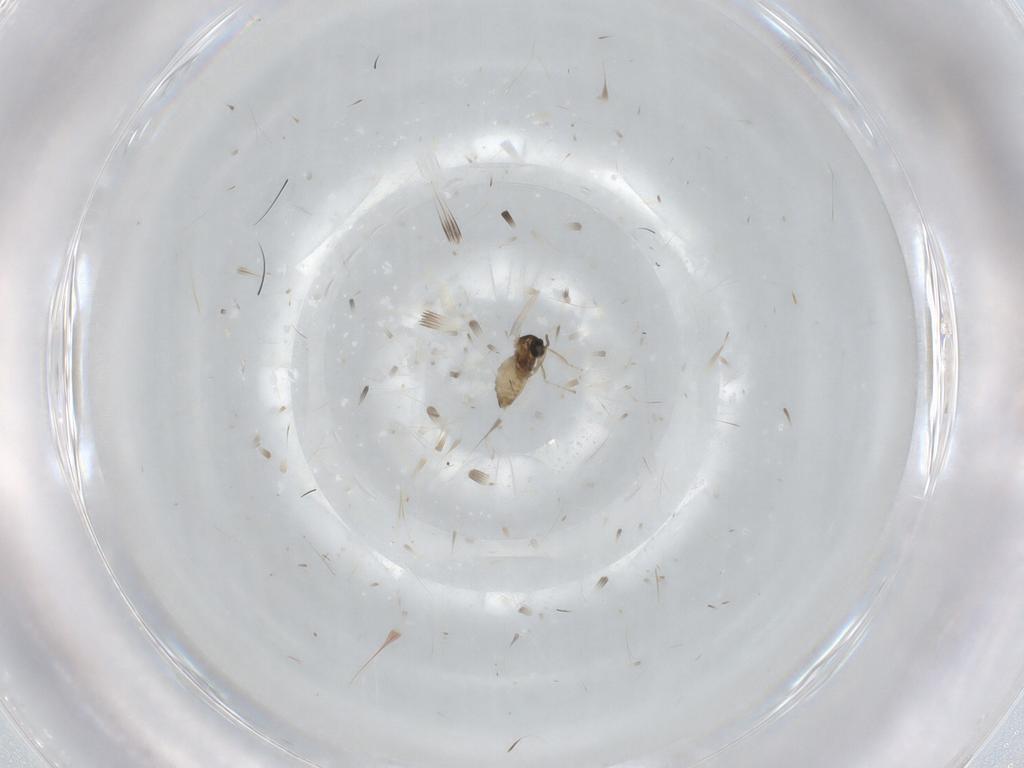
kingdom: Animalia
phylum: Arthropoda
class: Insecta
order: Diptera
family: Cecidomyiidae
